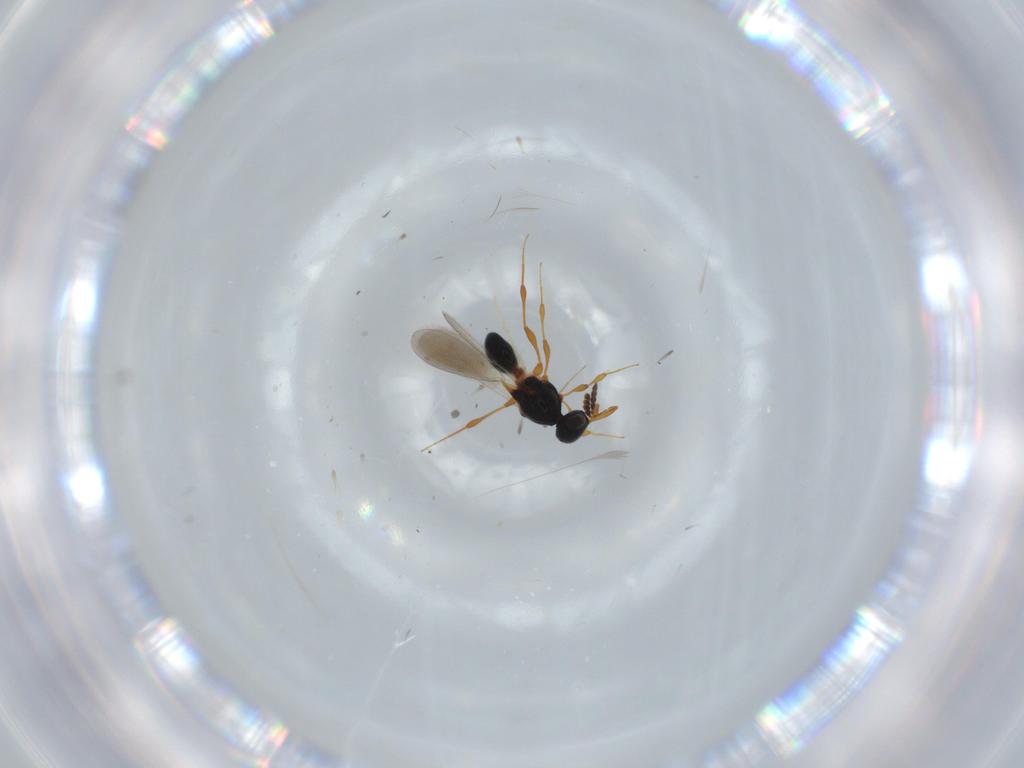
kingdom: Animalia
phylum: Arthropoda
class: Insecta
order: Hymenoptera
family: Platygastridae
